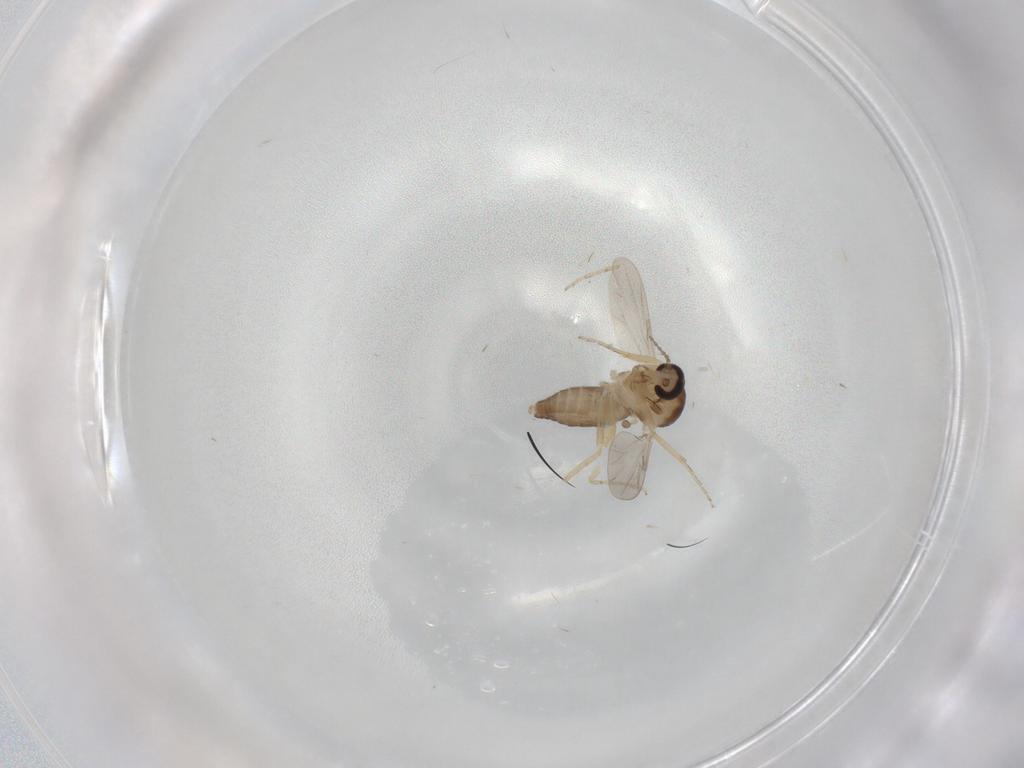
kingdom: Animalia
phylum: Arthropoda
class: Insecta
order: Diptera
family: Ceratopogonidae
